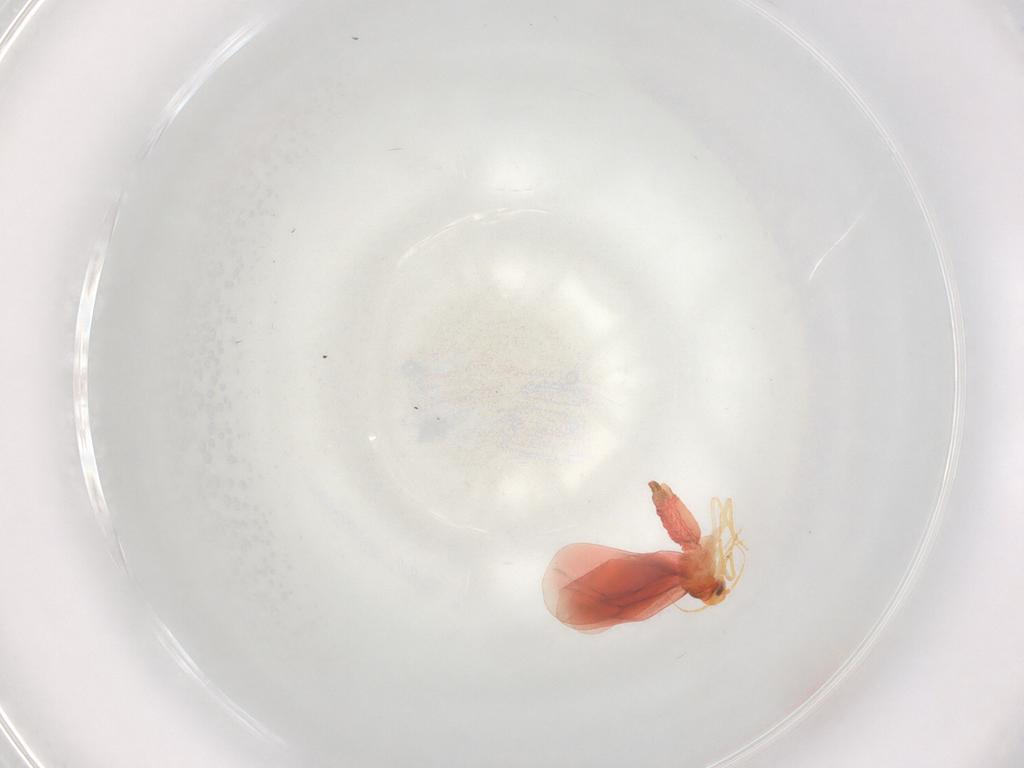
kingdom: Animalia
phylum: Arthropoda
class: Insecta
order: Hemiptera
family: Aleyrodidae
